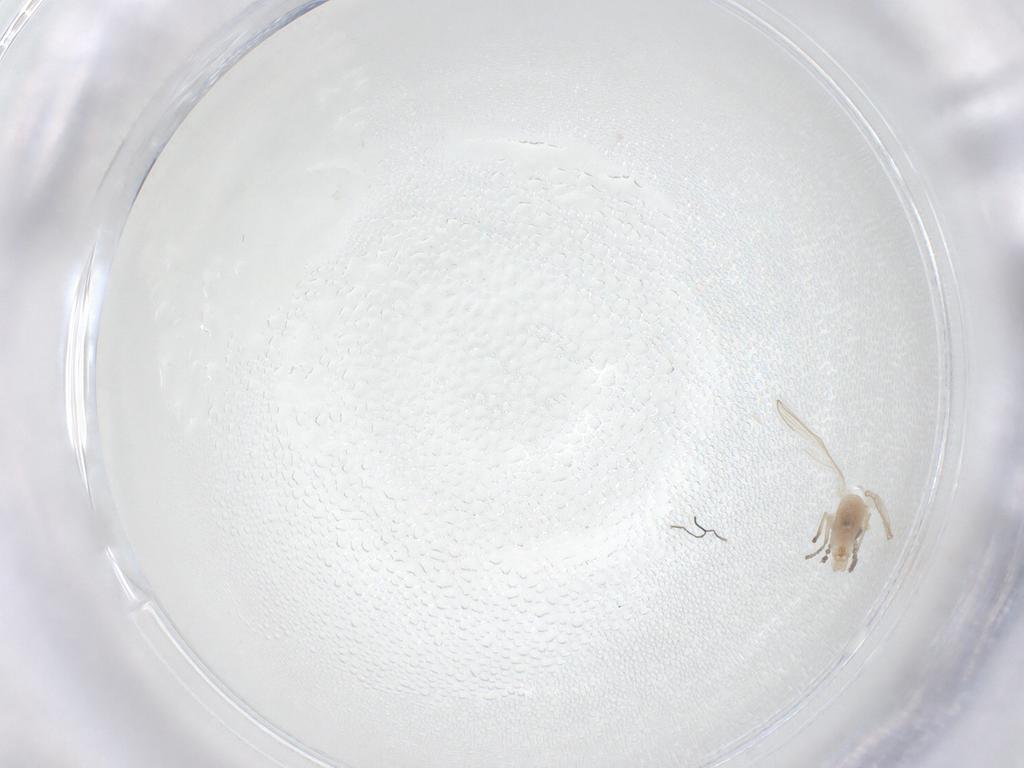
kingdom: Animalia
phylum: Arthropoda
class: Insecta
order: Diptera
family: Psychodidae
